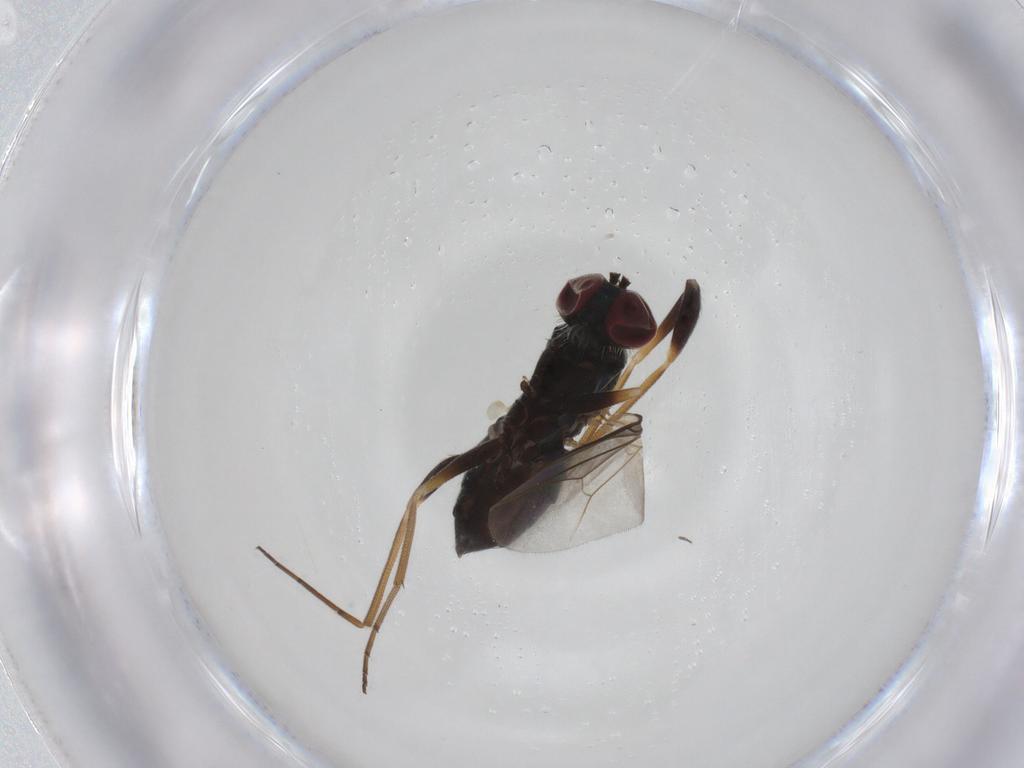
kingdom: Animalia
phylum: Arthropoda
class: Insecta
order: Diptera
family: Dolichopodidae
